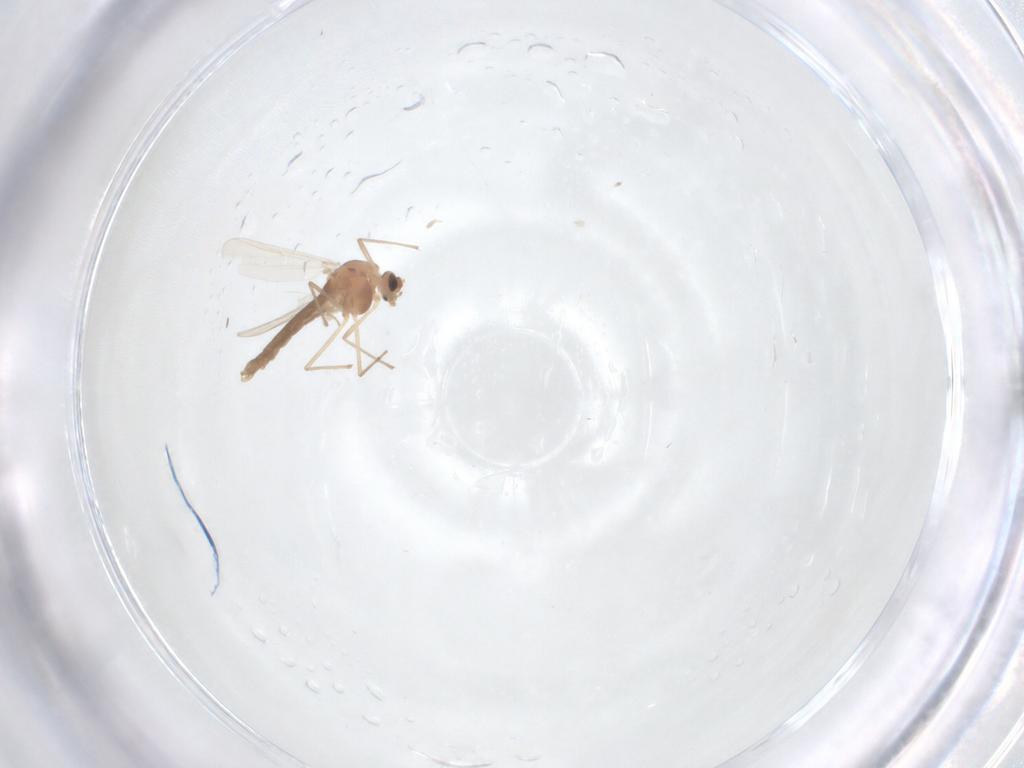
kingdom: Animalia
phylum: Arthropoda
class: Insecta
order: Diptera
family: Chironomidae
